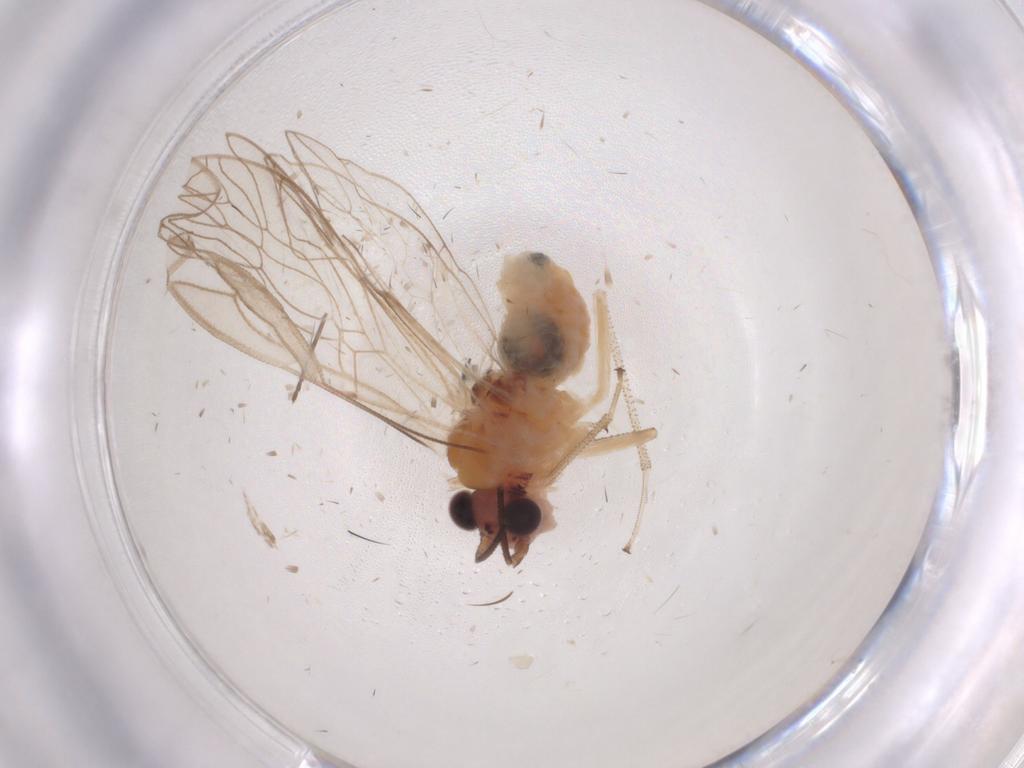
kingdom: Animalia
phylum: Arthropoda
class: Insecta
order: Psocodea
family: Amphipsocidae
